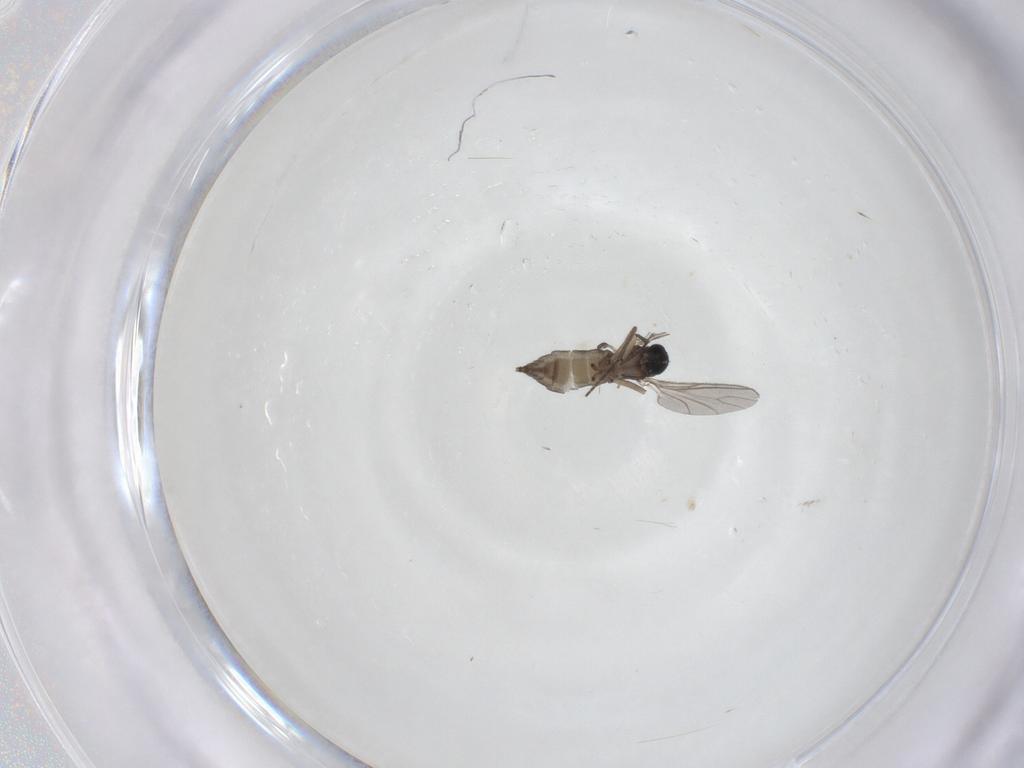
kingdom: Animalia
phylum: Arthropoda
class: Insecta
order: Diptera
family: Sciaridae
